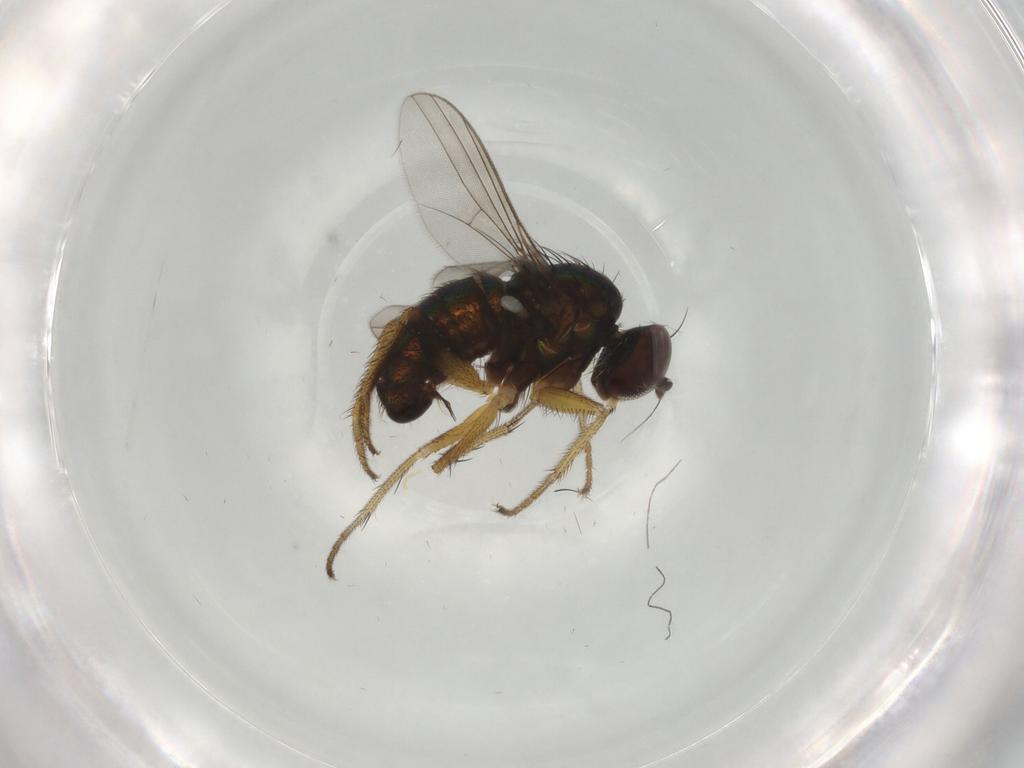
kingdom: Animalia
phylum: Arthropoda
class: Insecta
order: Diptera
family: Dolichopodidae
